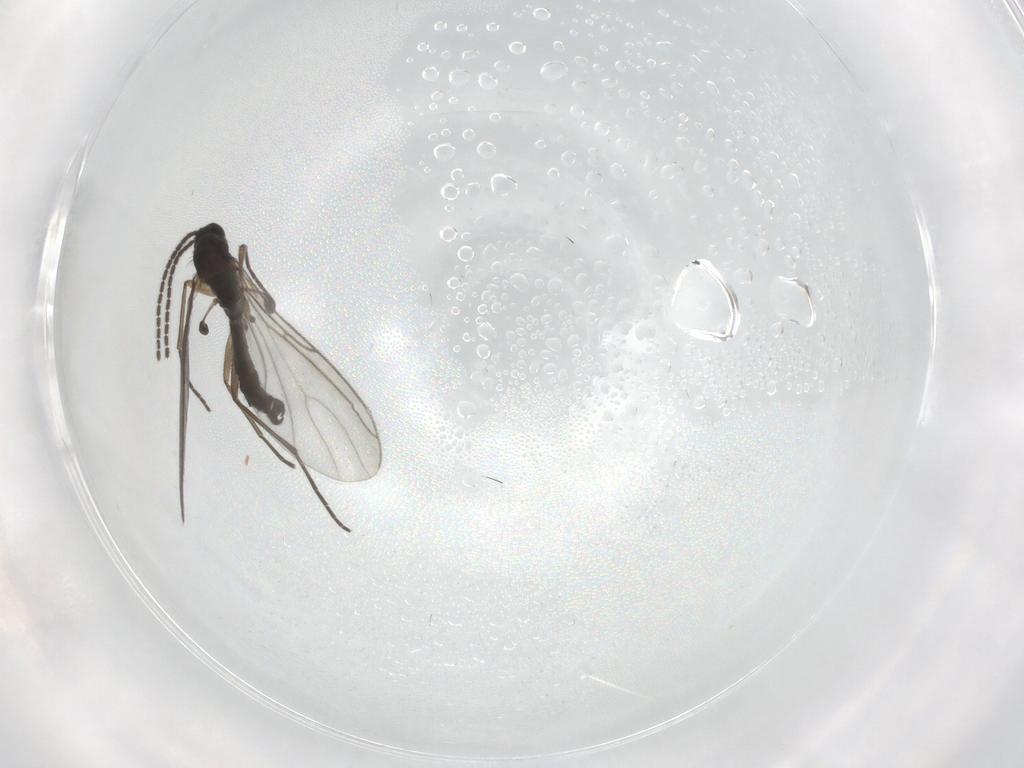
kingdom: Animalia
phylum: Arthropoda
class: Insecta
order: Diptera
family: Sciaridae
